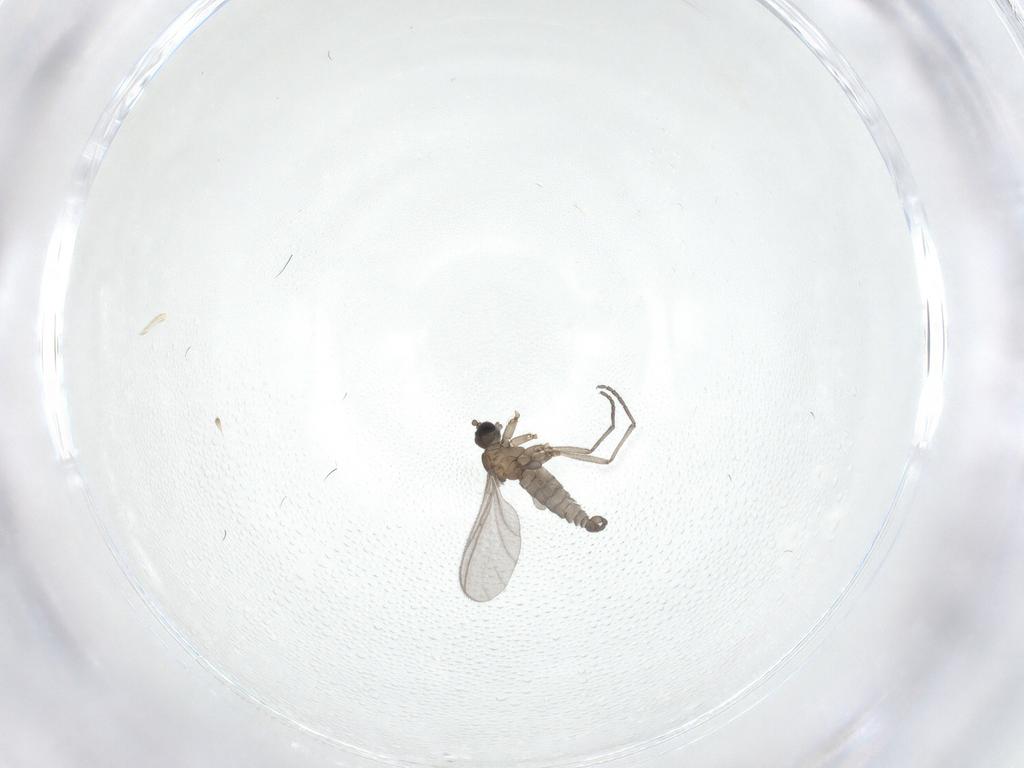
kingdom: Animalia
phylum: Arthropoda
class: Insecta
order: Diptera
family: Sciaridae
